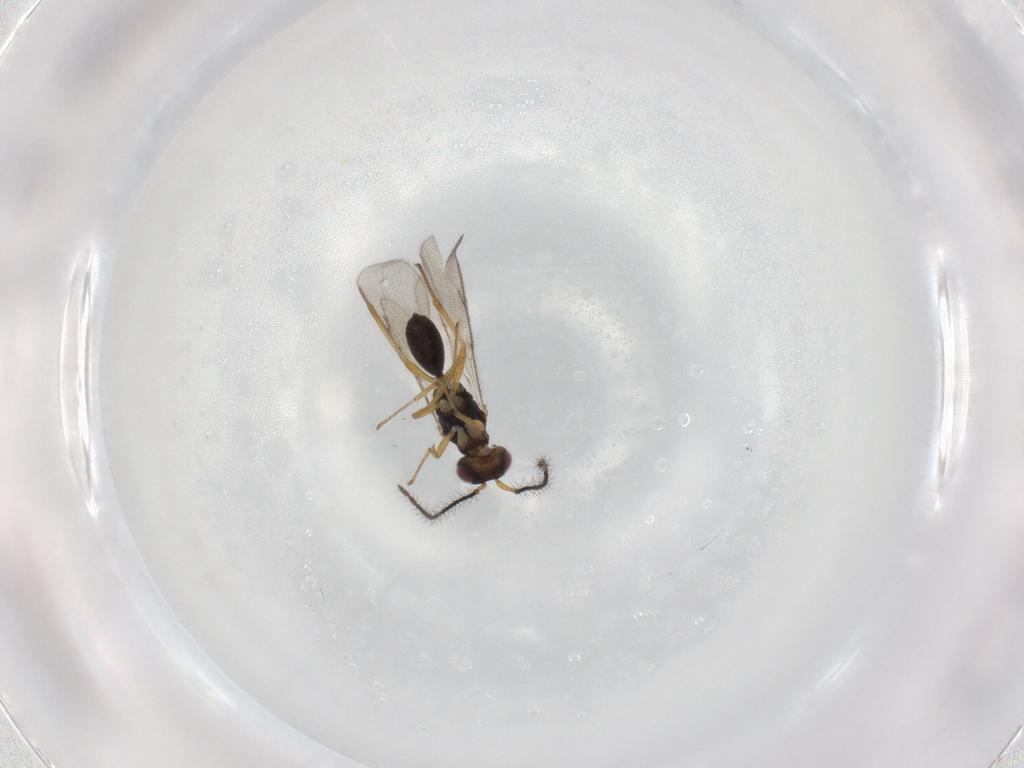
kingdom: Animalia
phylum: Arthropoda
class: Insecta
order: Hymenoptera
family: Diparidae
